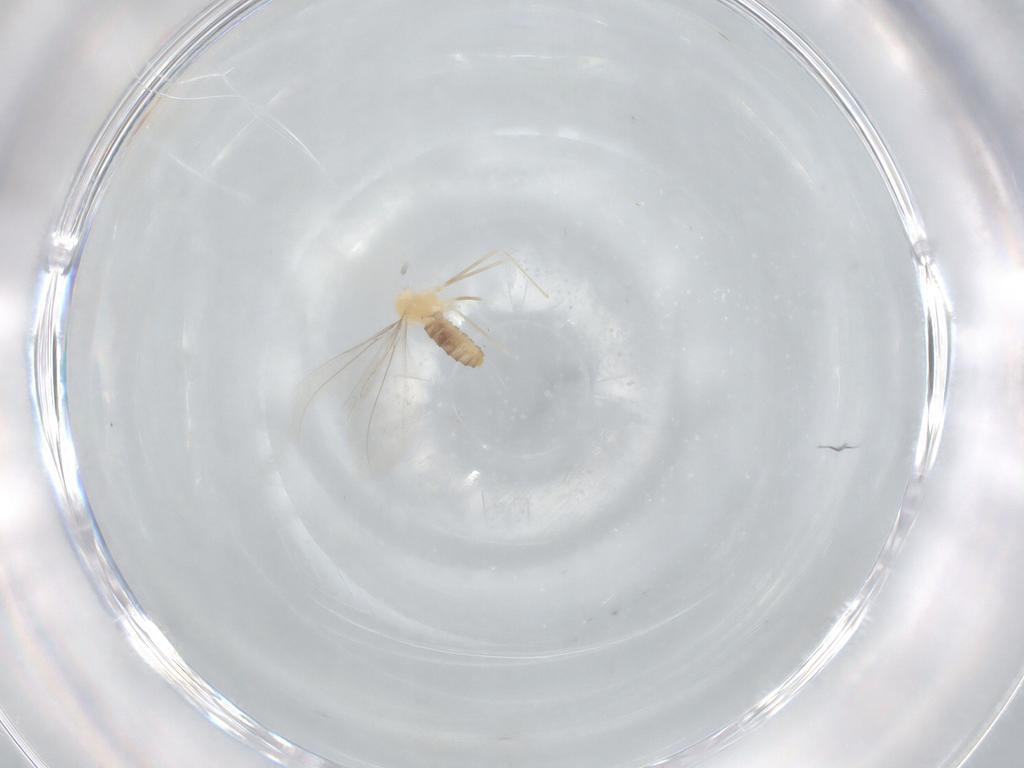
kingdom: Animalia
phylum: Arthropoda
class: Insecta
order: Diptera
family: Cecidomyiidae
